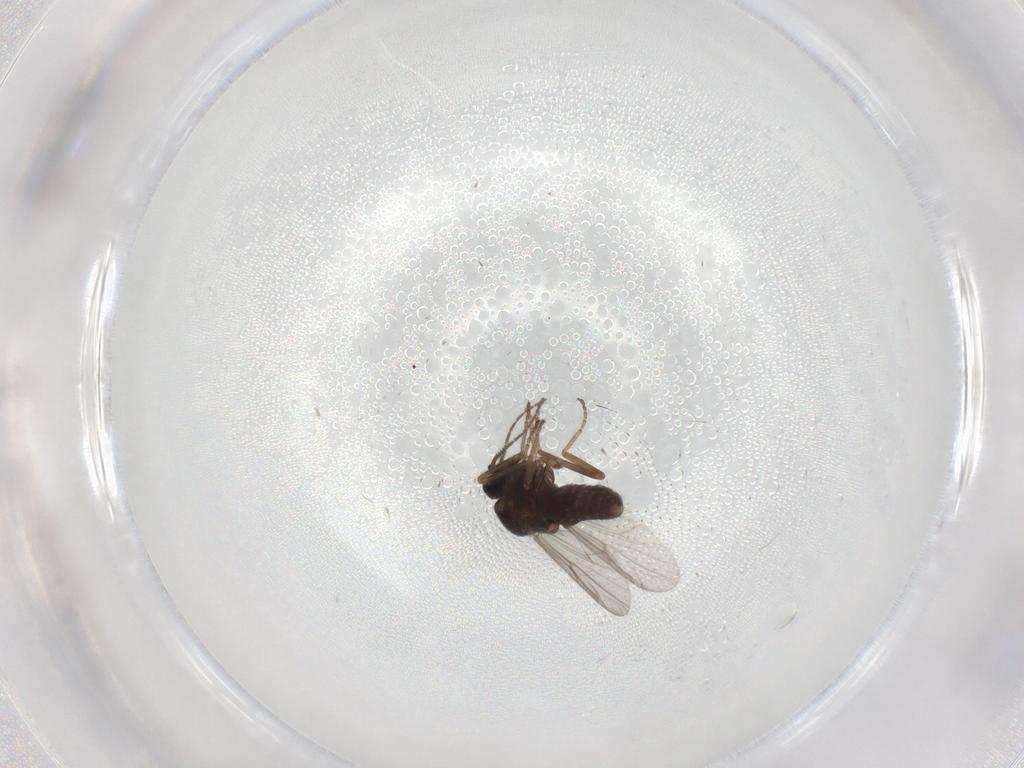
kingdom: Animalia
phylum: Arthropoda
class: Insecta
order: Diptera
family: Phoridae
